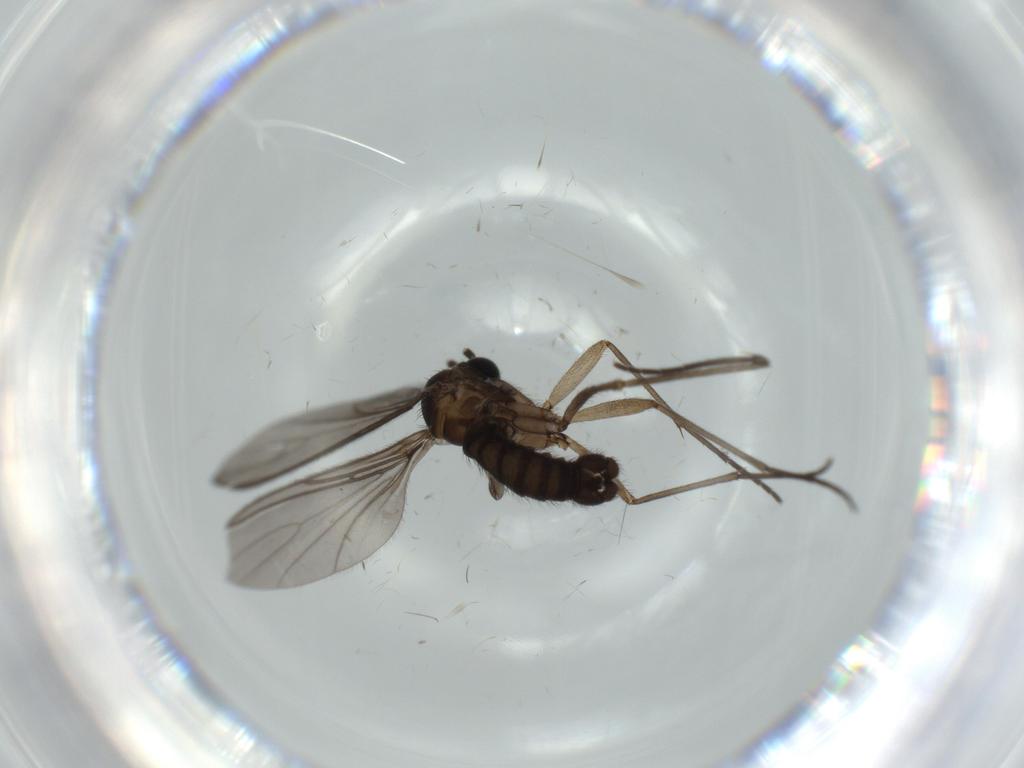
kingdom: Animalia
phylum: Arthropoda
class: Insecta
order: Diptera
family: Sciaridae
